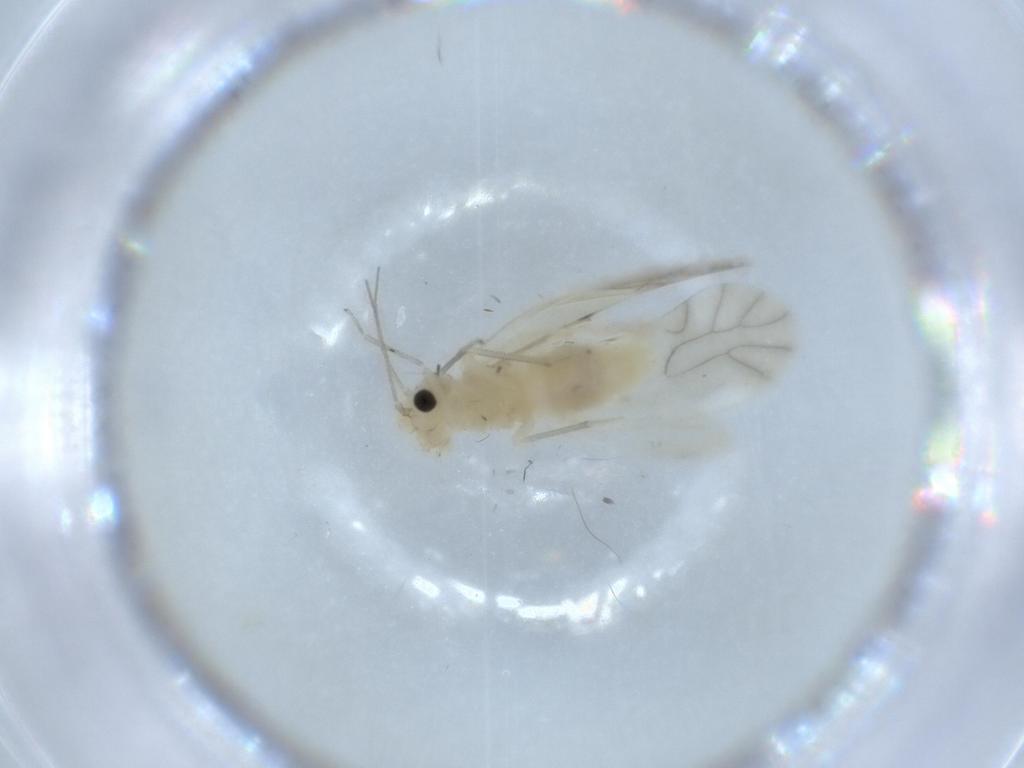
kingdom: Animalia
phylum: Arthropoda
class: Insecta
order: Psocodea
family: Caeciliusidae
